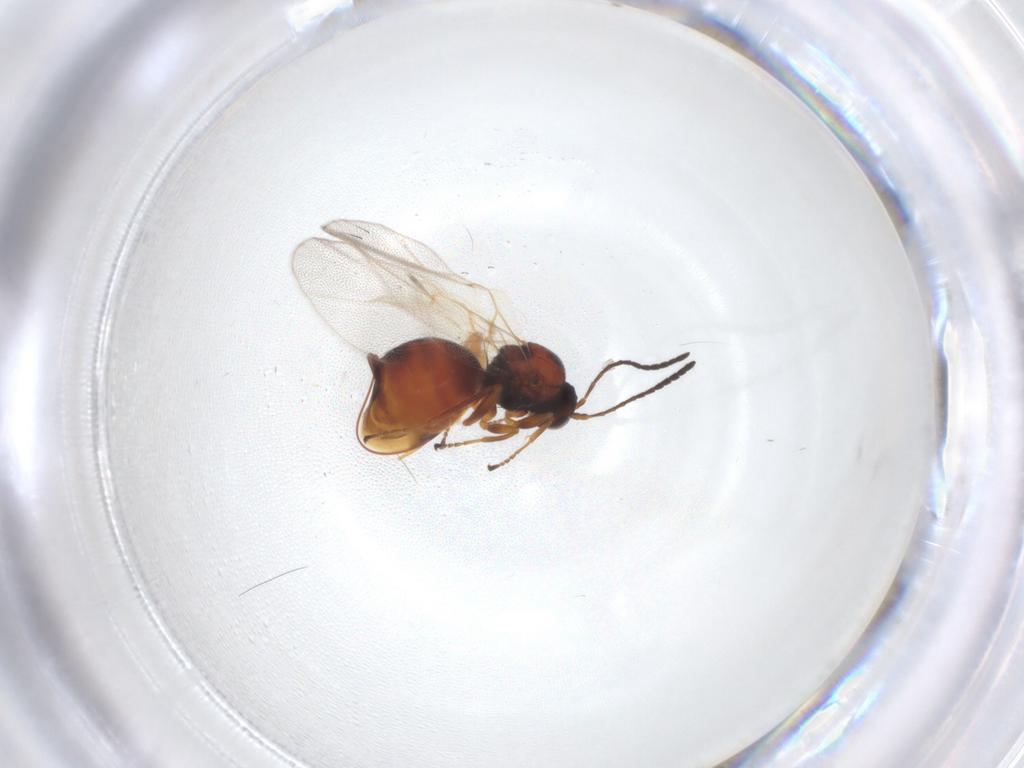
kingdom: Animalia
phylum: Arthropoda
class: Insecta
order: Hymenoptera
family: Cynipidae
